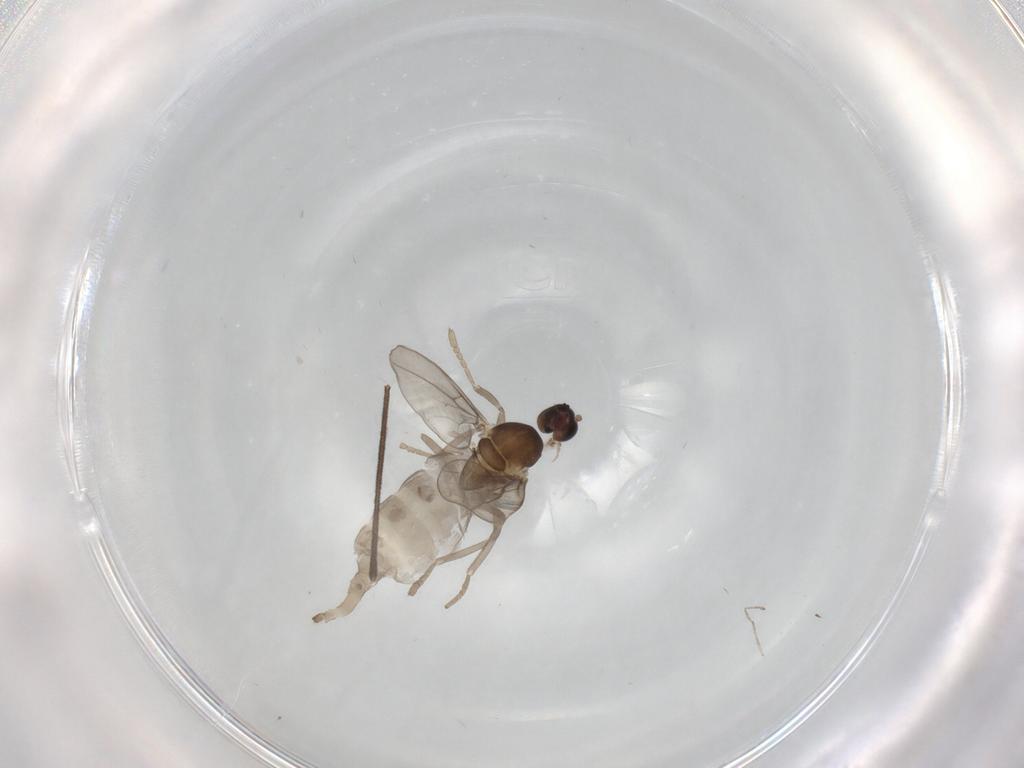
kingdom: Animalia
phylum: Arthropoda
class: Insecta
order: Diptera
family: Cecidomyiidae
